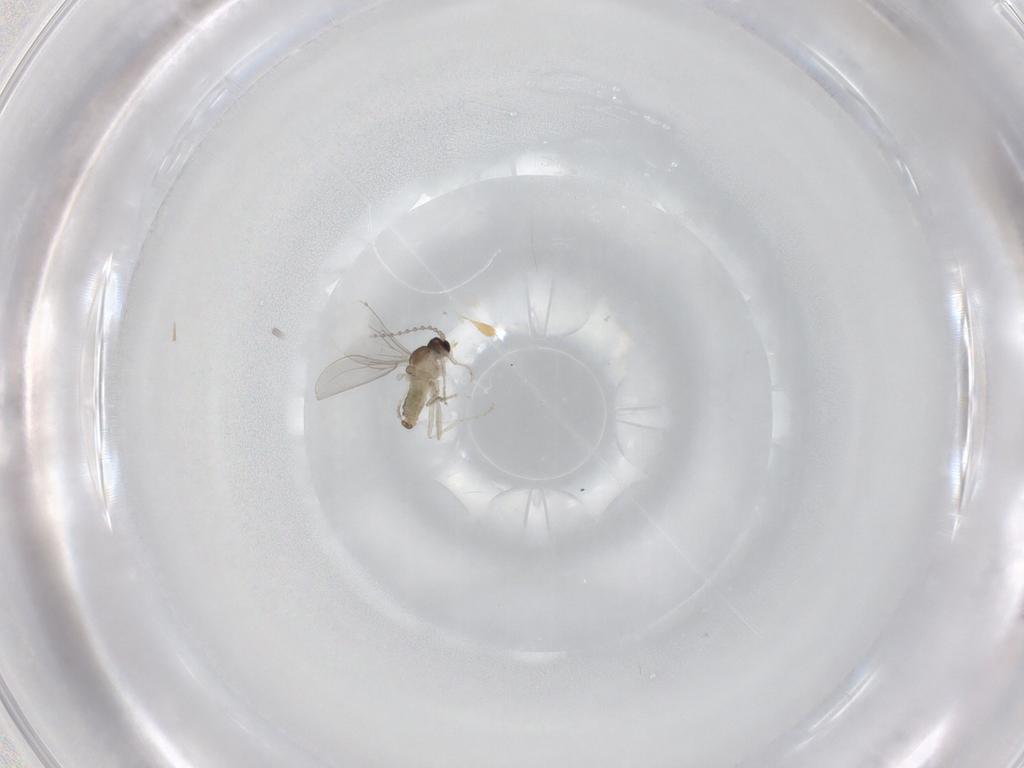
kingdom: Animalia
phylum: Arthropoda
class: Insecta
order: Diptera
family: Cecidomyiidae
